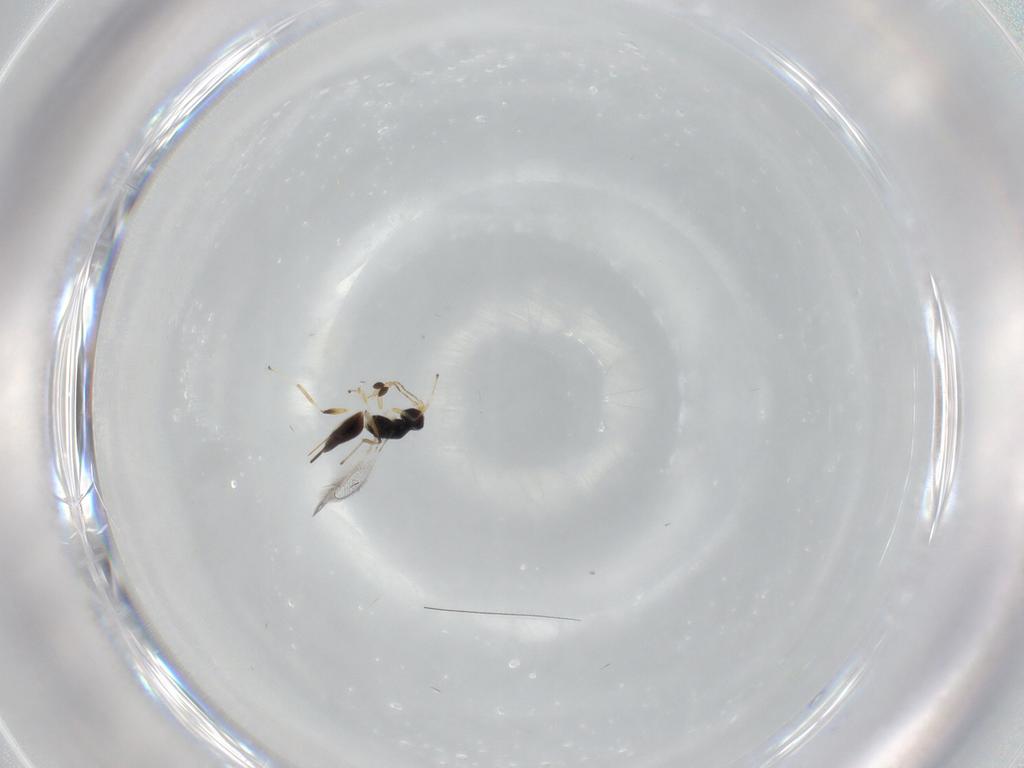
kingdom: Animalia
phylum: Arthropoda
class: Insecta
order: Hymenoptera
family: Mymaridae
